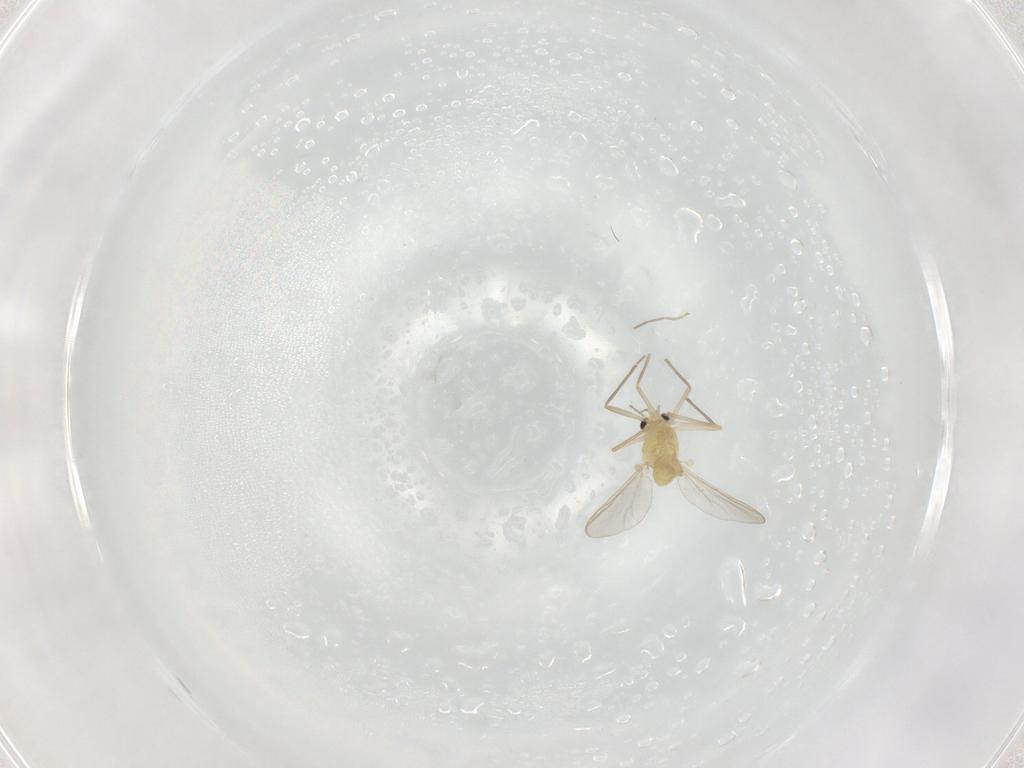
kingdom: Animalia
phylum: Arthropoda
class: Insecta
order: Diptera
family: Chironomidae
